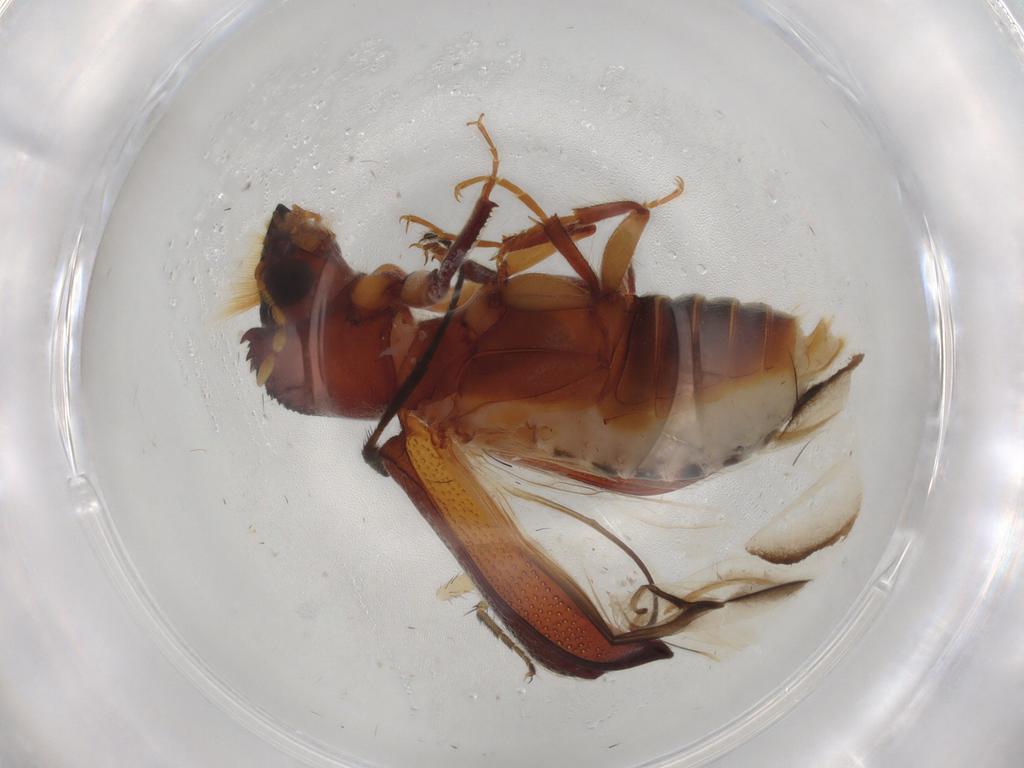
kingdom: Animalia
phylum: Arthropoda
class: Insecta
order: Coleoptera
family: Bostrichidae
